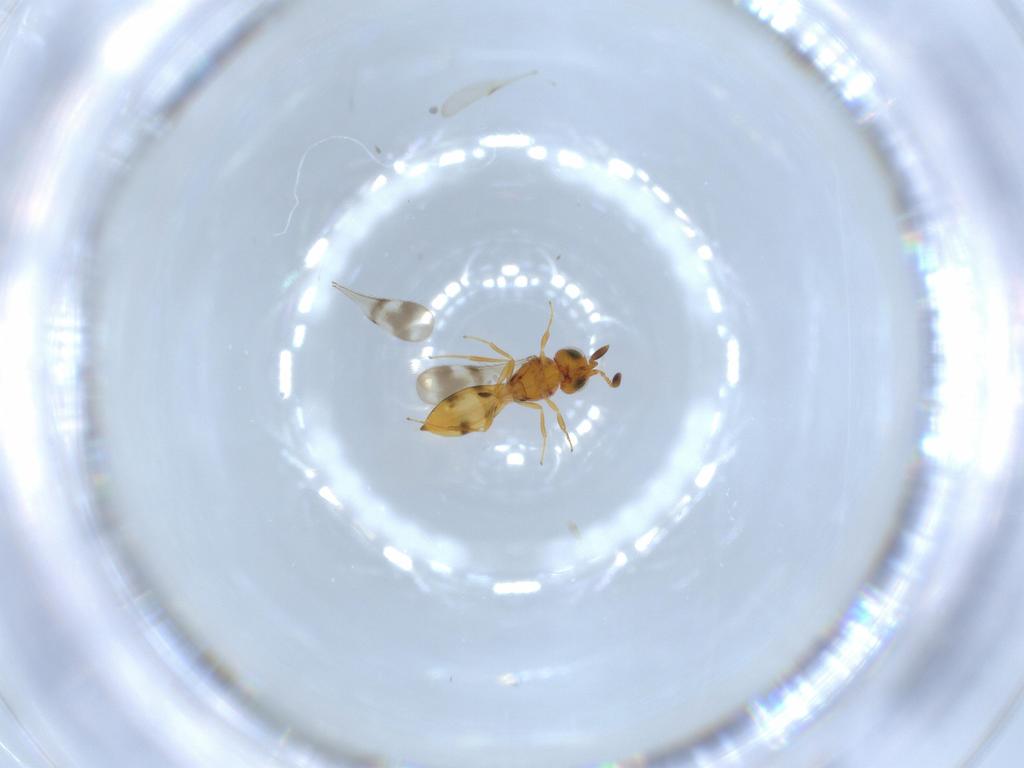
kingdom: Animalia
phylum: Arthropoda
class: Insecta
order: Hymenoptera
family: Formicidae
